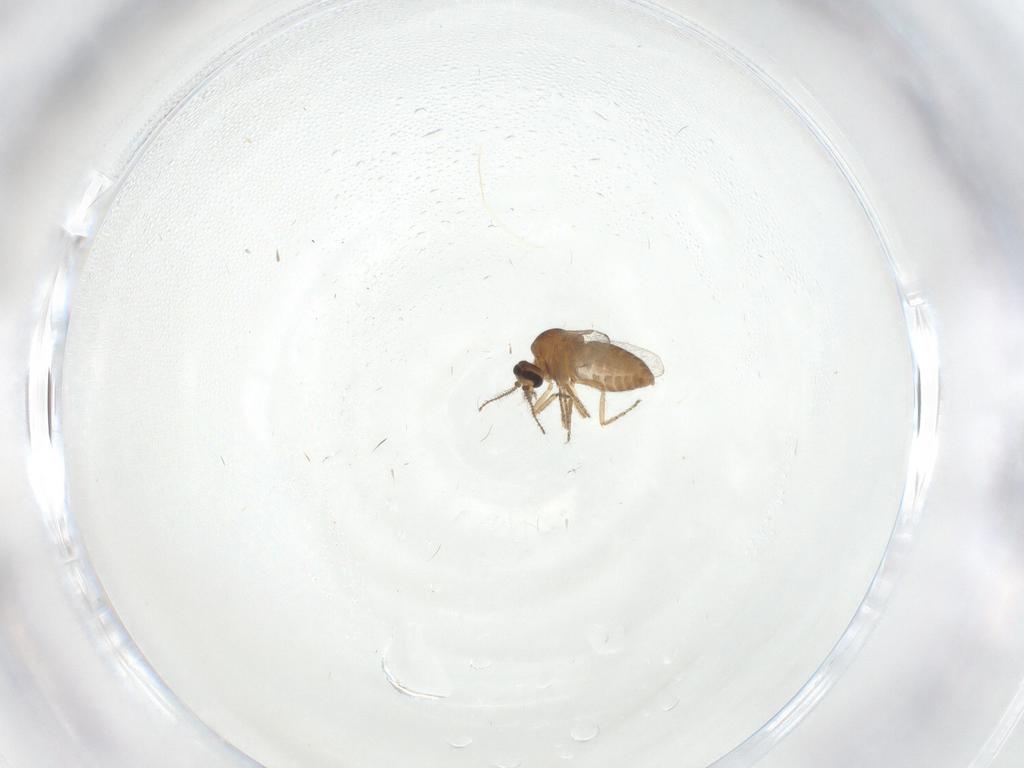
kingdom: Animalia
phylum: Arthropoda
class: Insecta
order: Diptera
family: Ceratopogonidae
